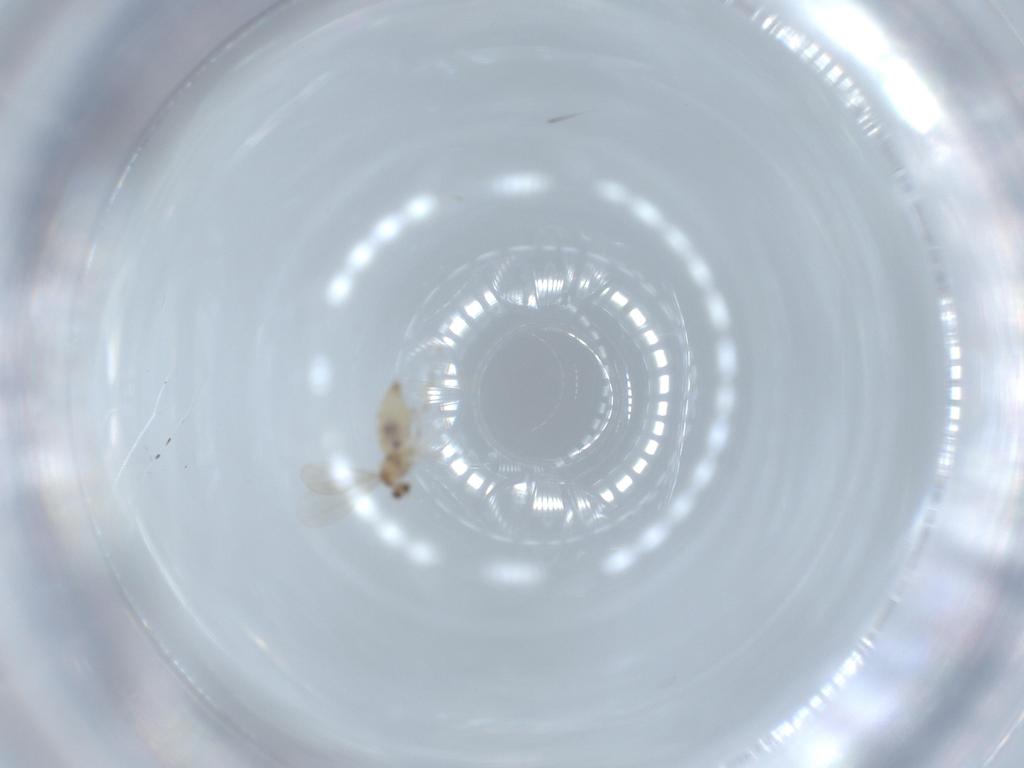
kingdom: Animalia
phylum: Arthropoda
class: Insecta
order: Diptera
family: Cecidomyiidae
